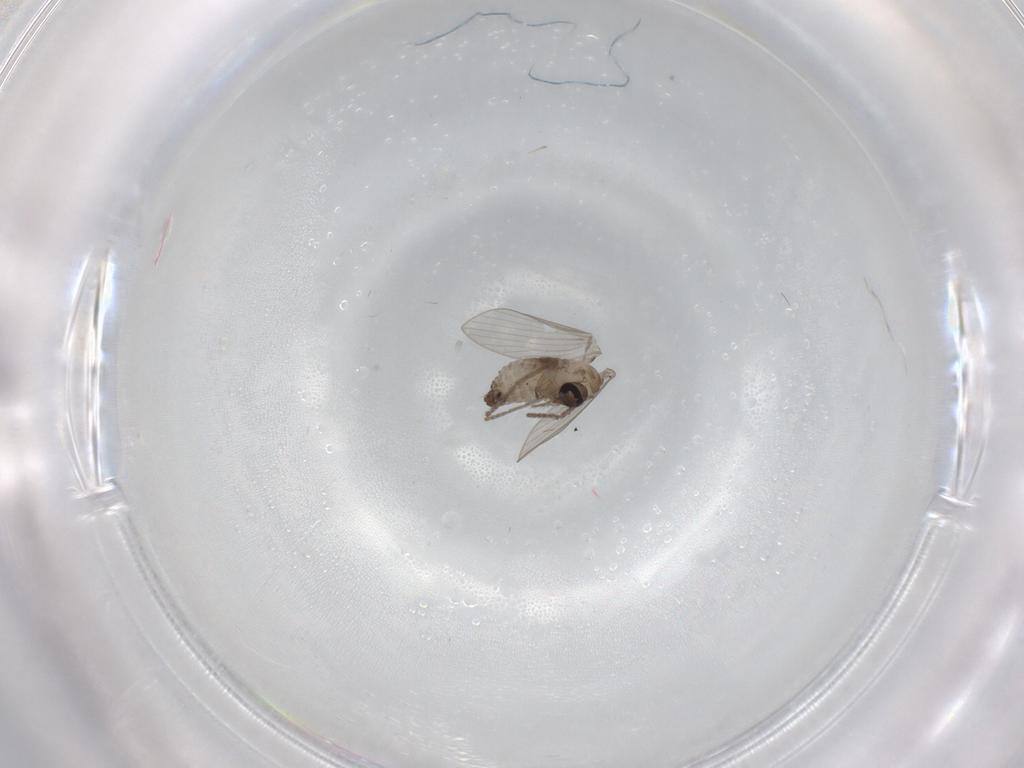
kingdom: Animalia
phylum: Arthropoda
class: Insecta
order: Diptera
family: Psychodidae
